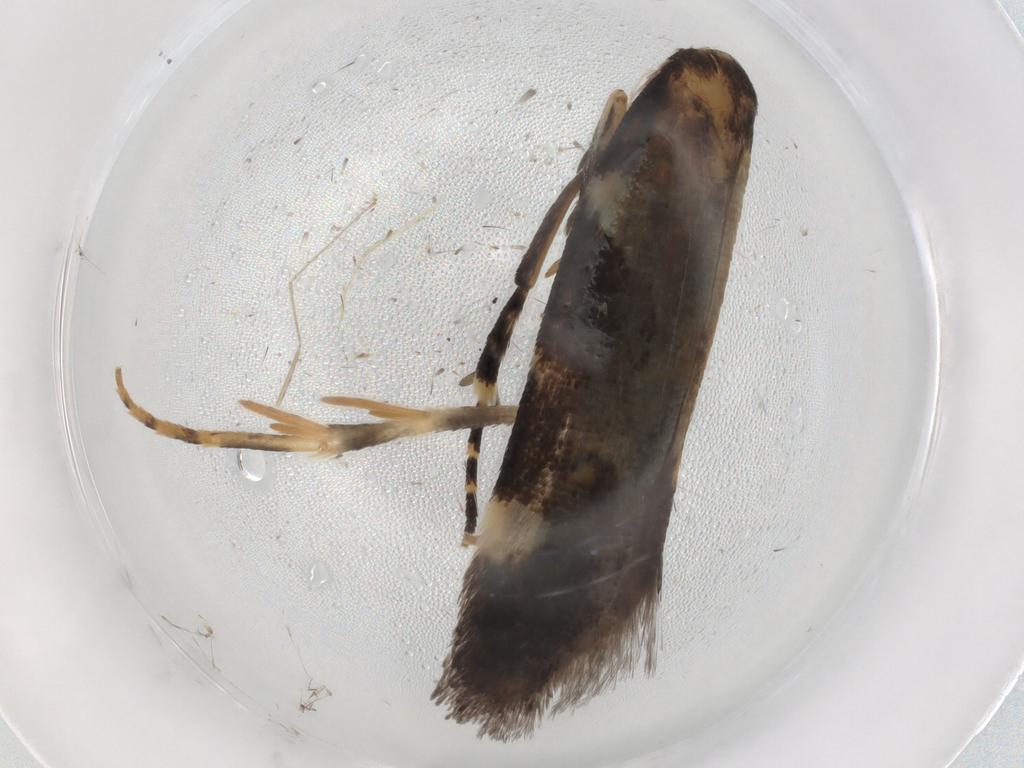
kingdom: Animalia
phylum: Arthropoda
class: Insecta
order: Lepidoptera
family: Gelechiidae
